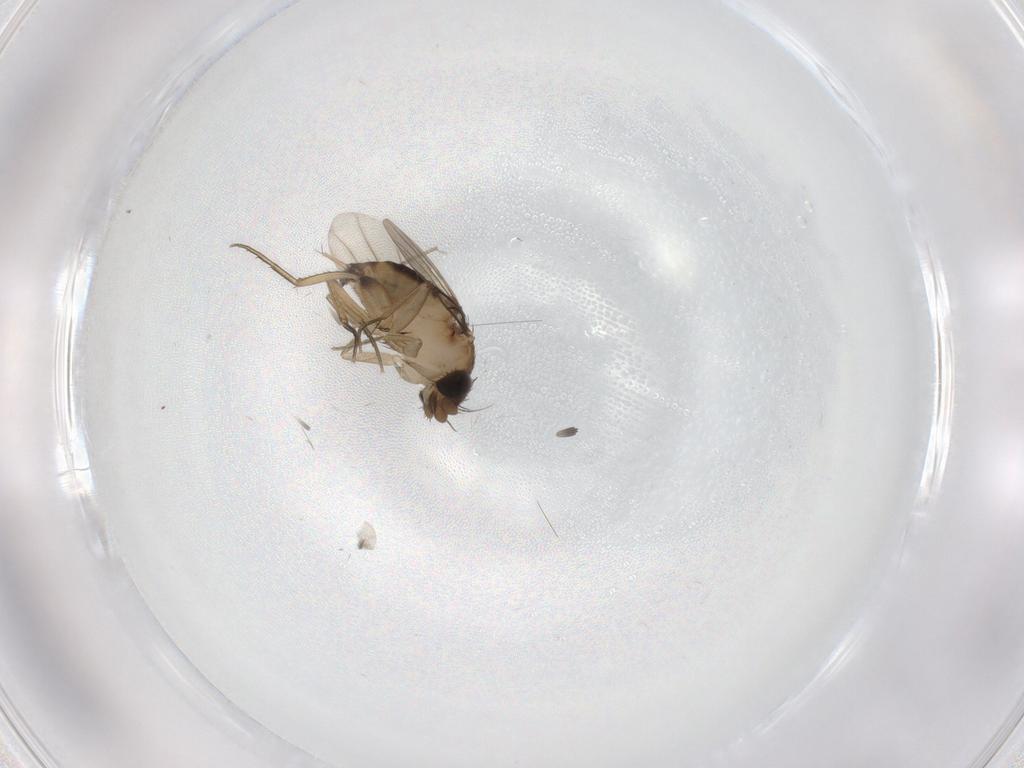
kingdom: Animalia
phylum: Arthropoda
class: Insecta
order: Diptera
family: Phoridae
